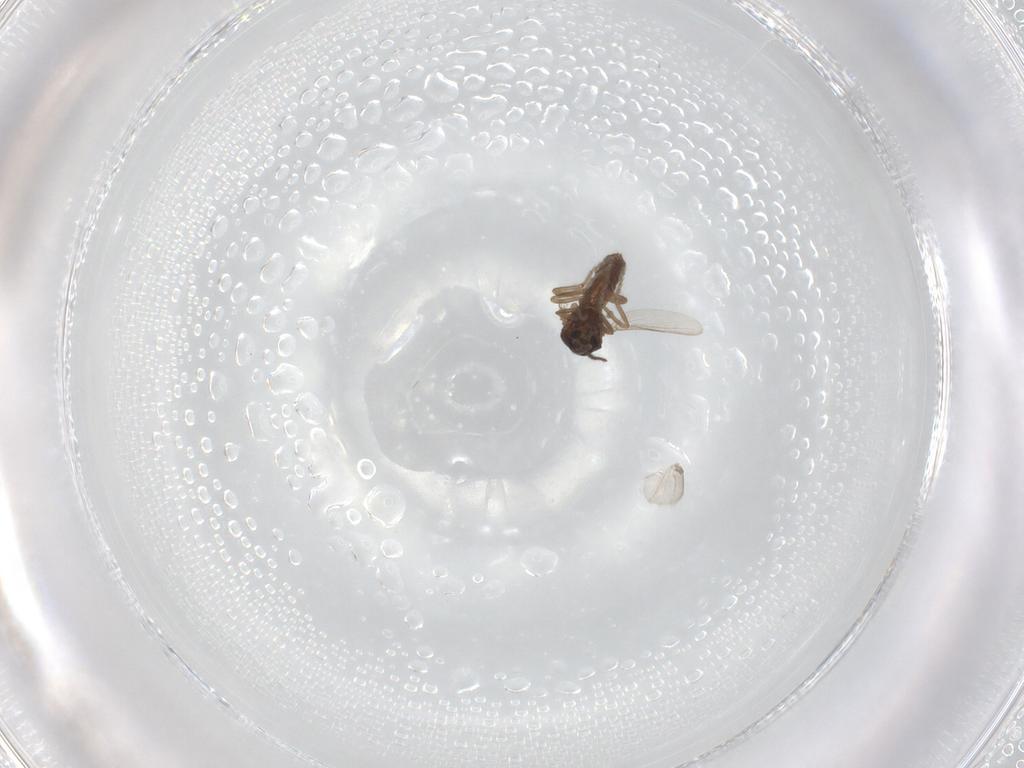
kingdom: Animalia
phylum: Arthropoda
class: Insecta
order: Diptera
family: Ceratopogonidae
